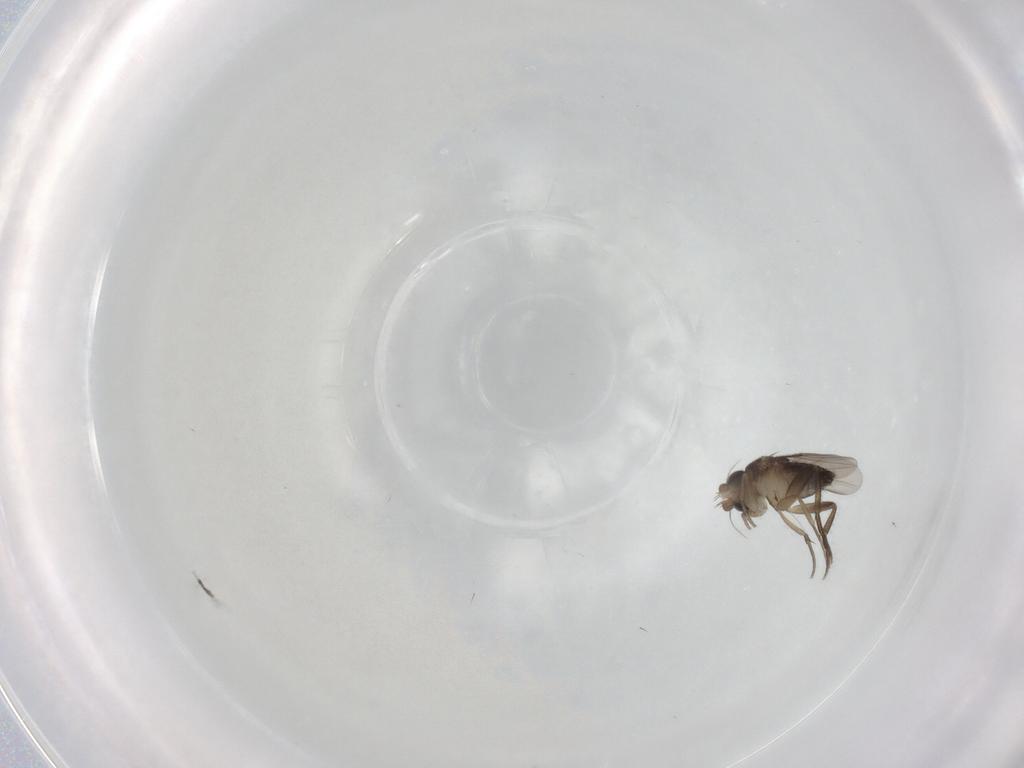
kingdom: Animalia
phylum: Arthropoda
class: Insecta
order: Diptera
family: Phoridae
